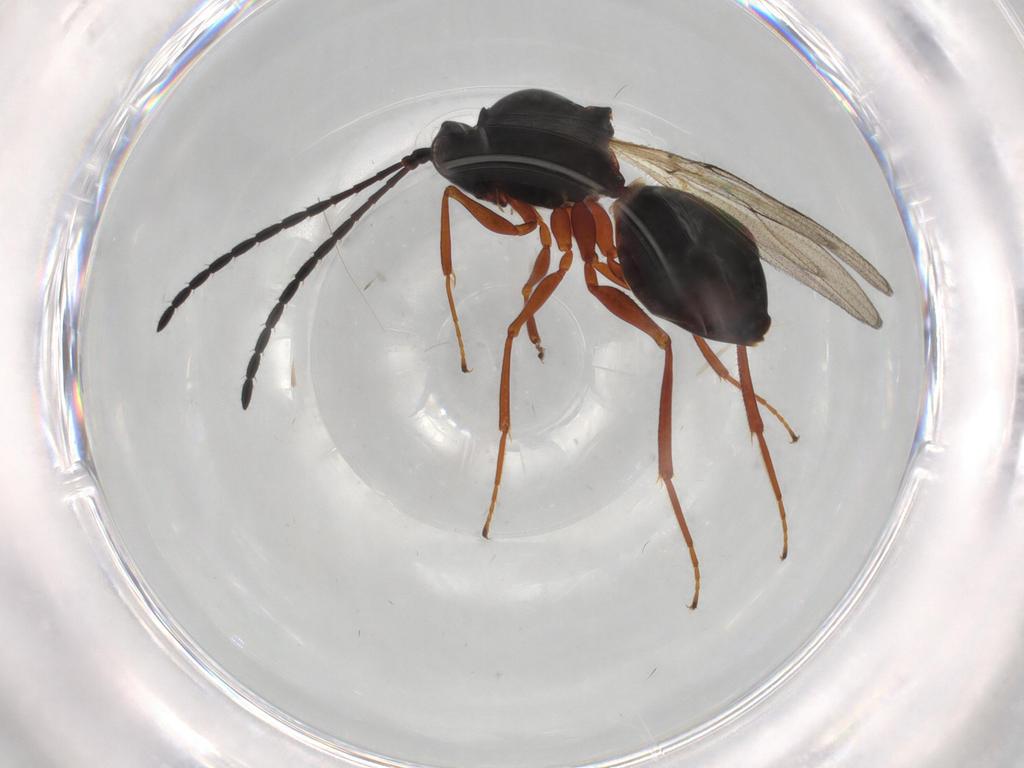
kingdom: Animalia
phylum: Arthropoda
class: Insecta
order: Hymenoptera
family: Figitidae
